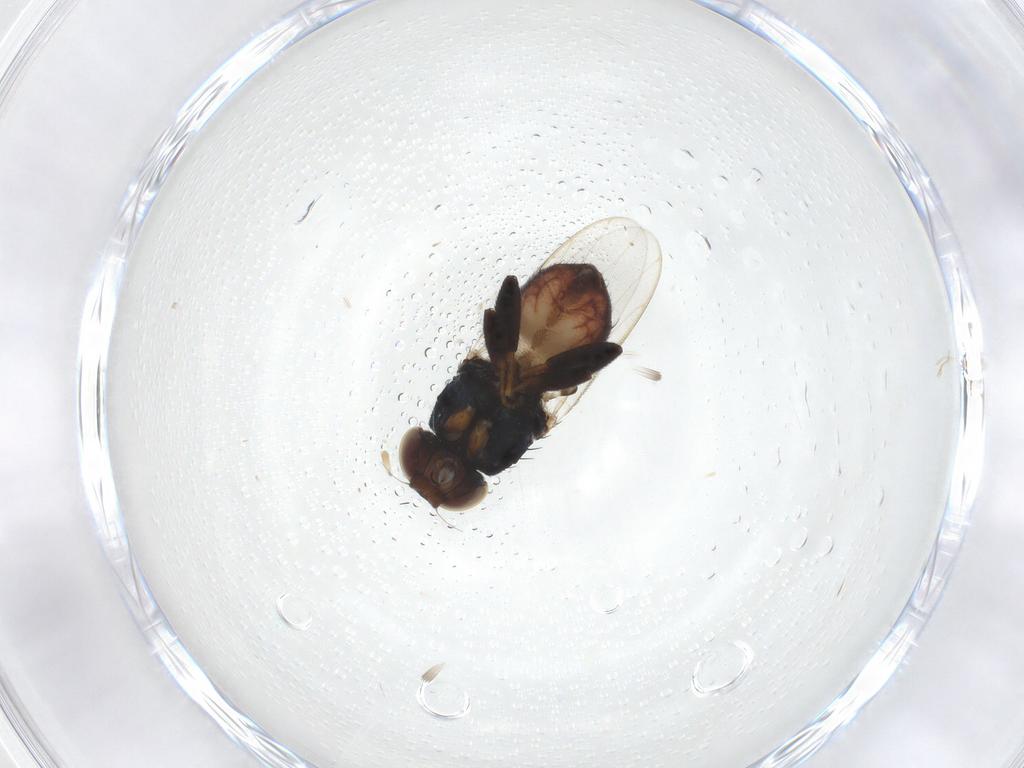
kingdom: Animalia
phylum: Arthropoda
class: Insecta
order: Diptera
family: Chloropidae
